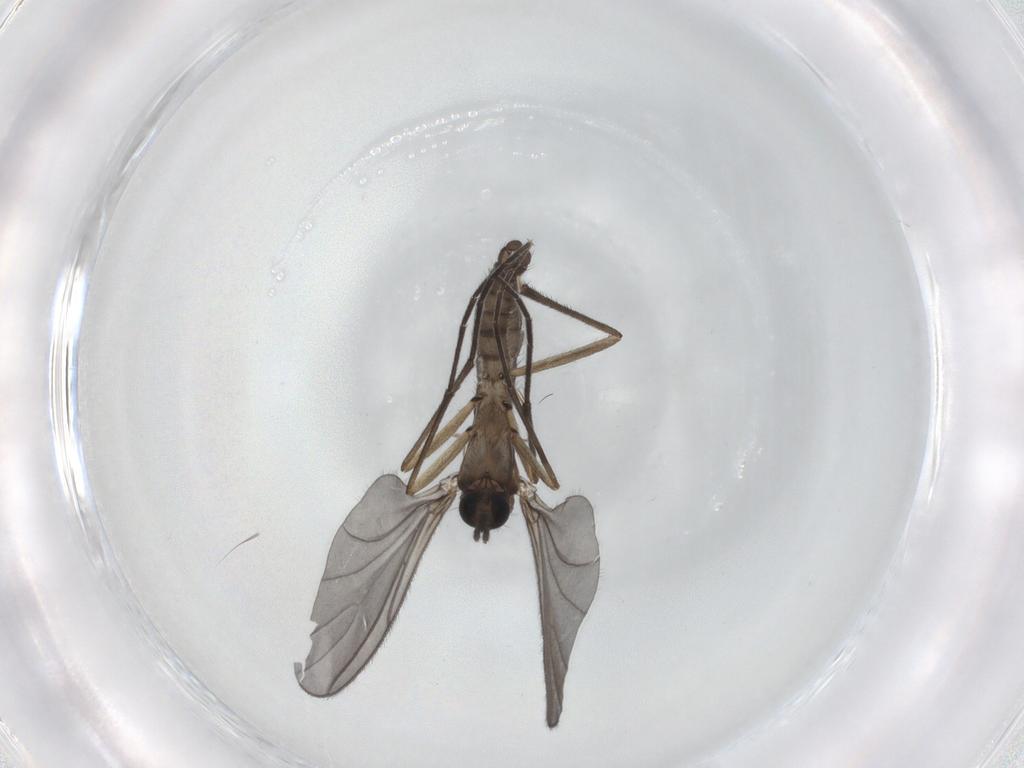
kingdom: Animalia
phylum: Arthropoda
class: Insecta
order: Diptera
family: Sciaridae
